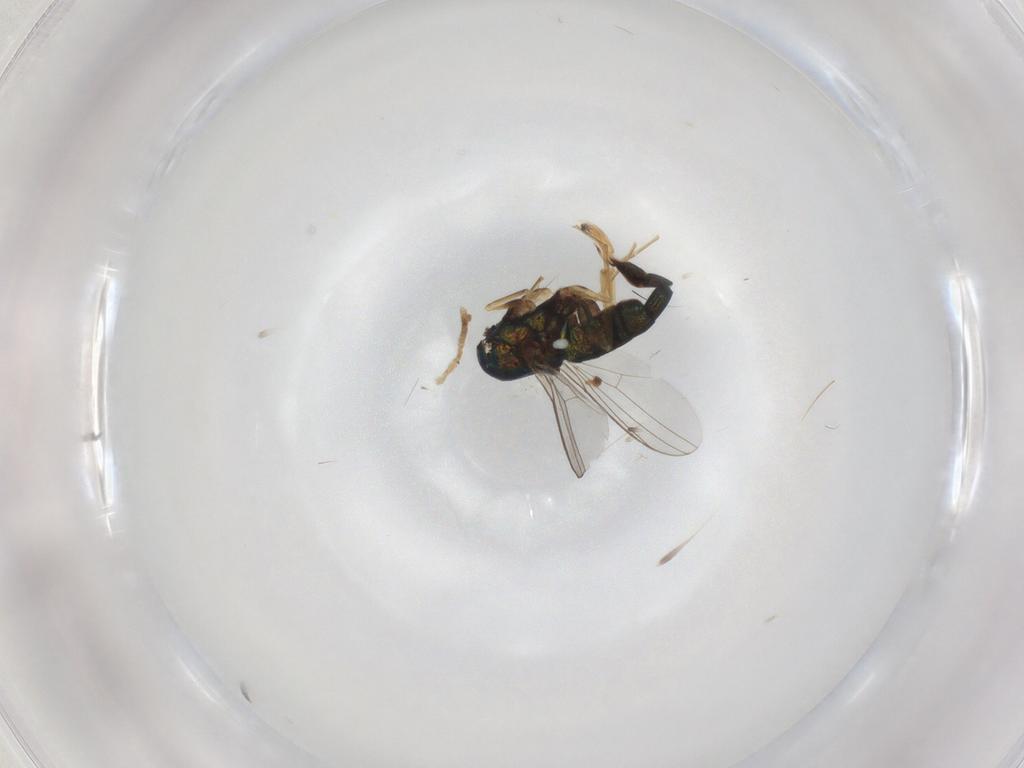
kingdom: Animalia
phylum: Arthropoda
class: Insecta
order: Diptera
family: Dolichopodidae
